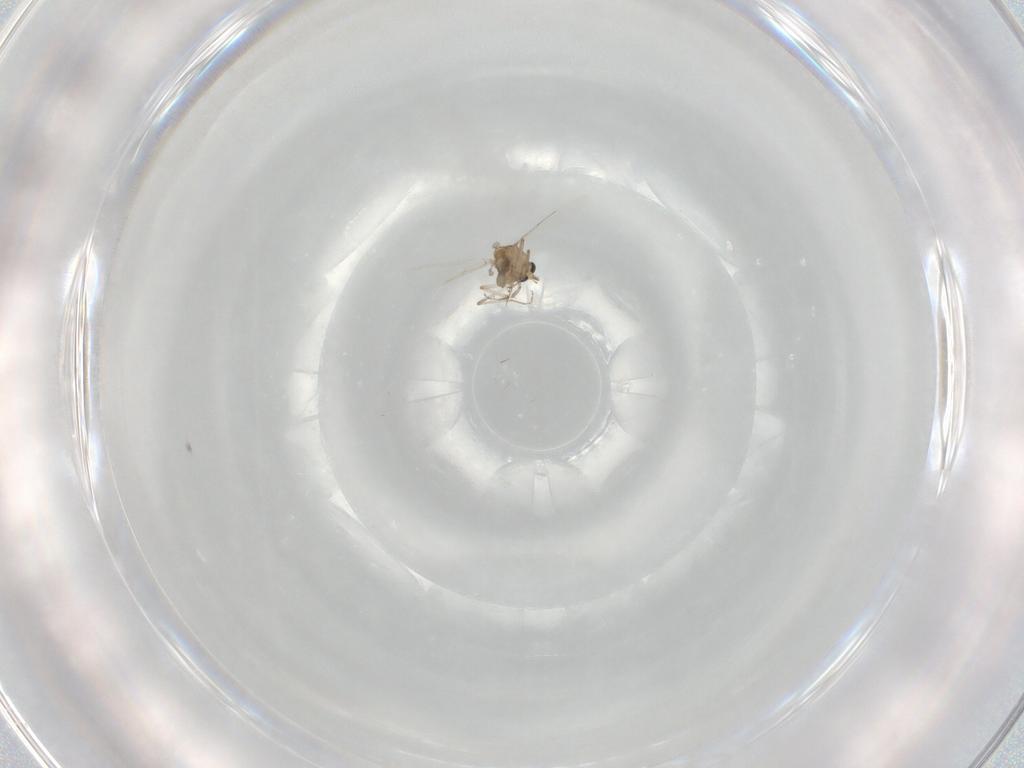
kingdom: Animalia
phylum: Arthropoda
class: Insecta
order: Diptera
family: Ceratopogonidae
